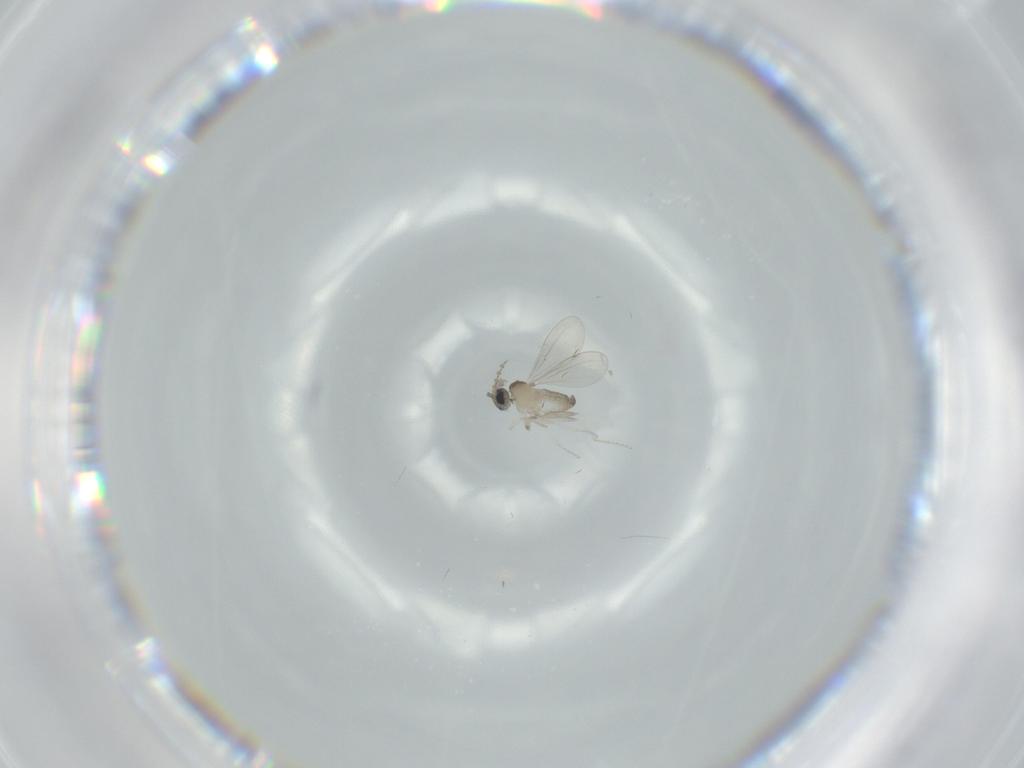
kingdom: Animalia
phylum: Arthropoda
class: Insecta
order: Diptera
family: Cecidomyiidae
